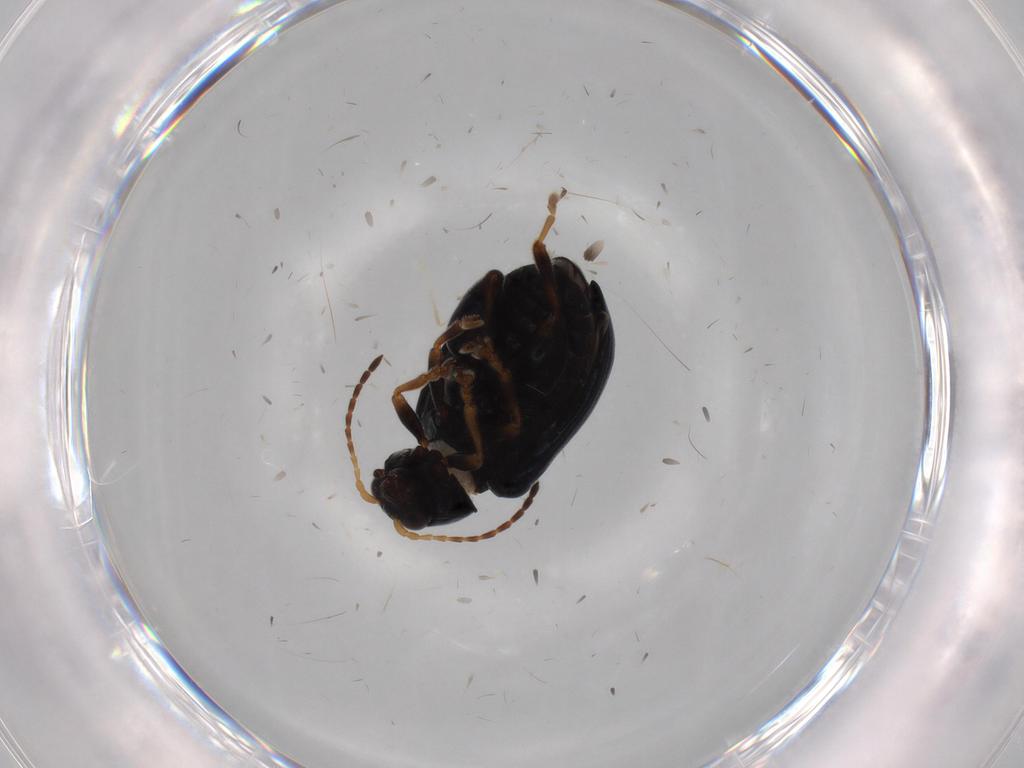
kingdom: Animalia
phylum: Arthropoda
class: Insecta
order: Coleoptera
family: Chrysomelidae
